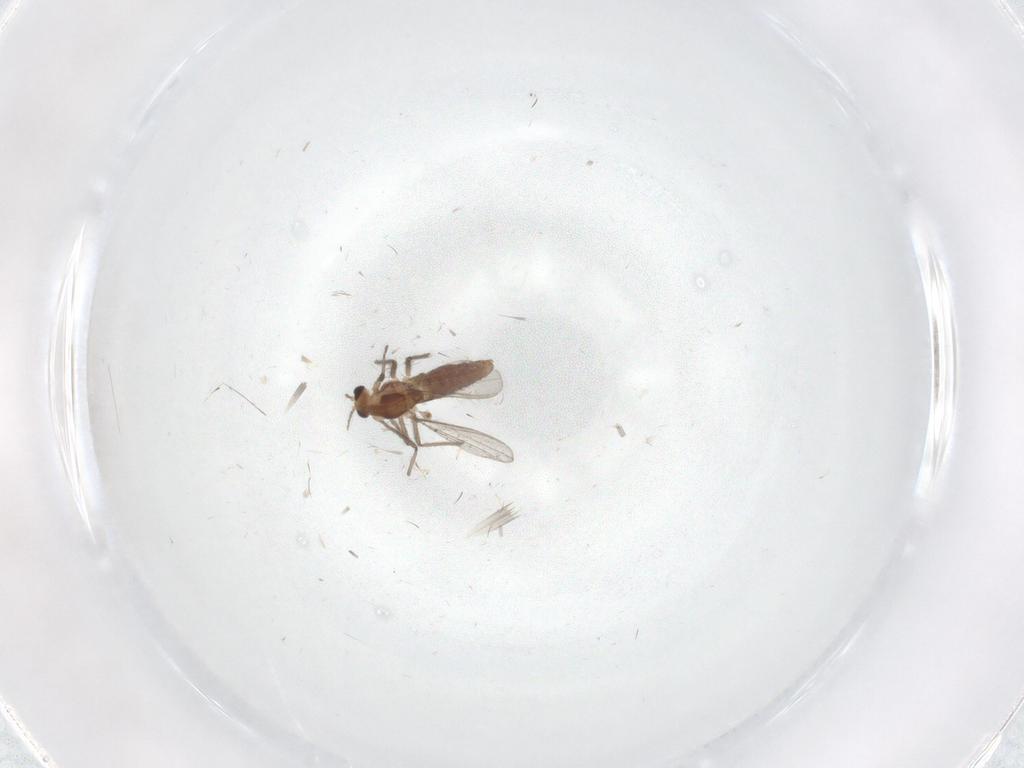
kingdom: Animalia
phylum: Arthropoda
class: Insecta
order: Diptera
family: Chironomidae
